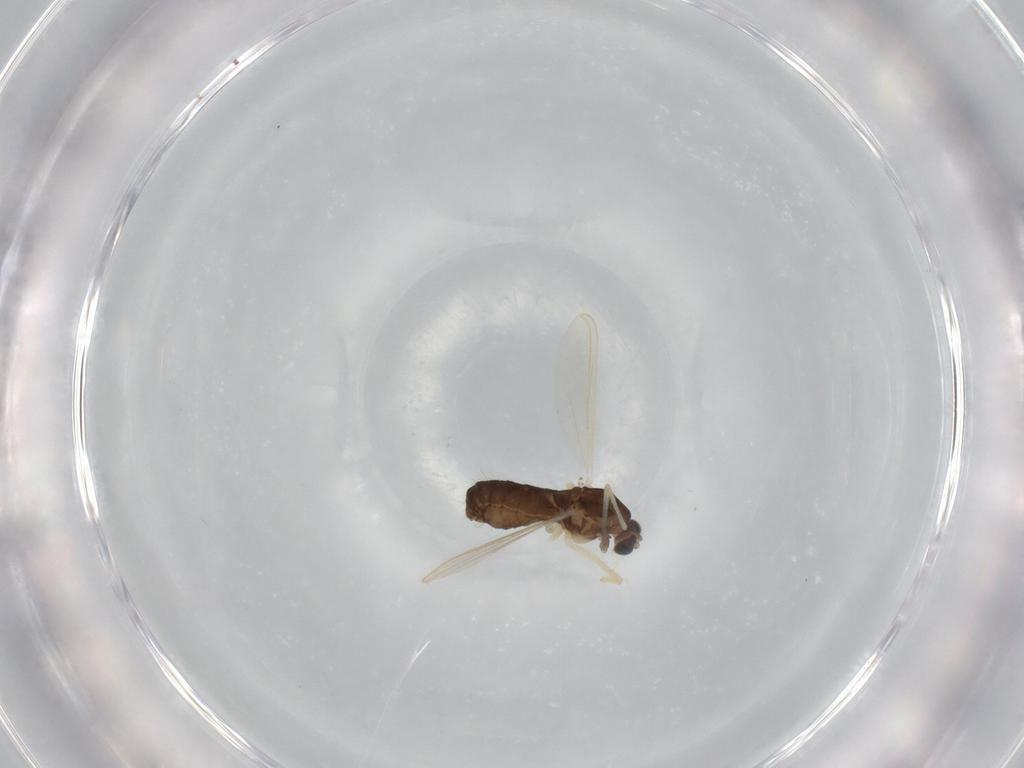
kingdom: Animalia
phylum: Arthropoda
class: Insecta
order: Diptera
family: Chironomidae
